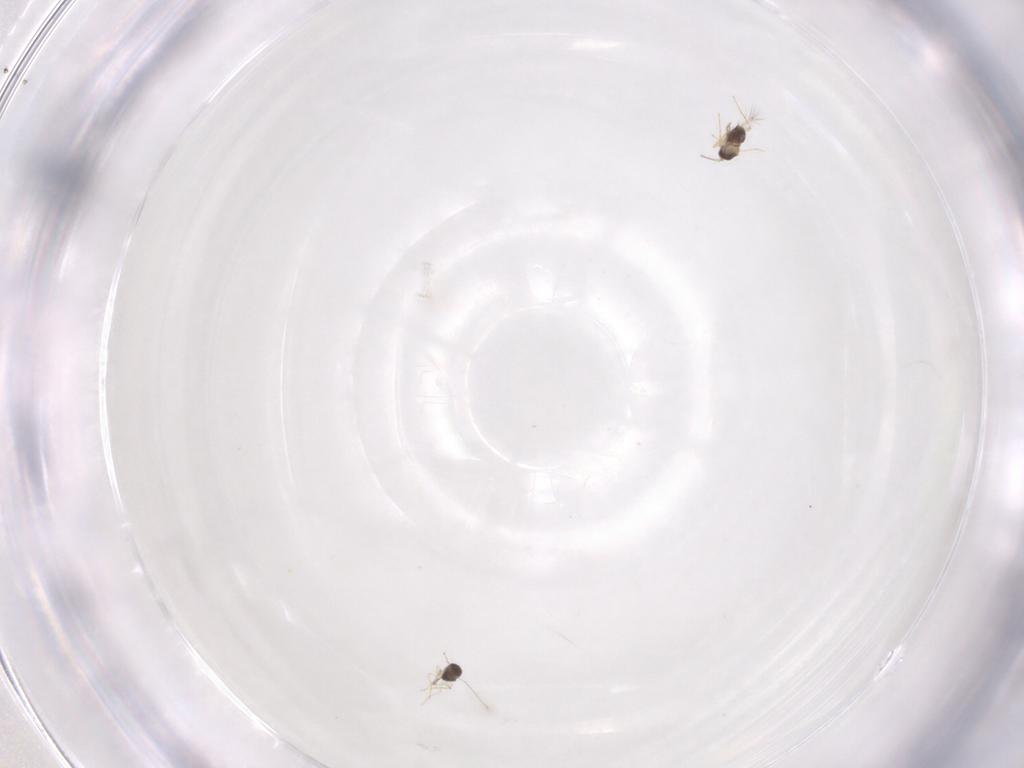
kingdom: Animalia
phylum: Arthropoda
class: Insecta
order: Hymenoptera
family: Mymaridae
